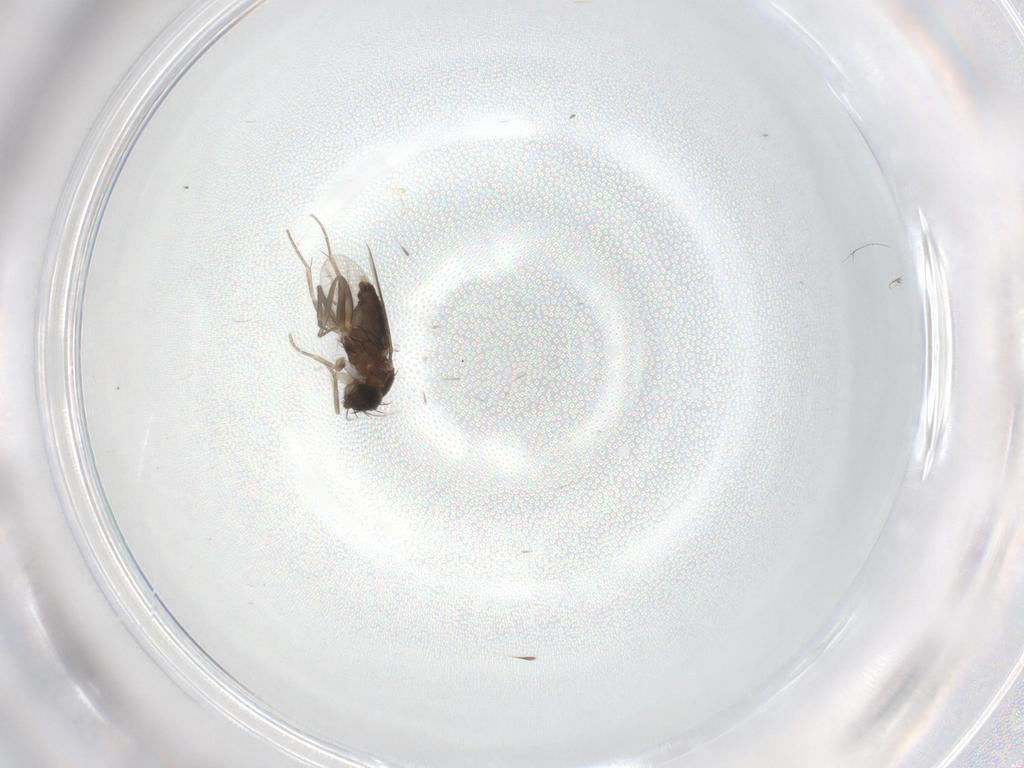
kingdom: Animalia
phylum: Arthropoda
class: Insecta
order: Diptera
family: Phoridae
